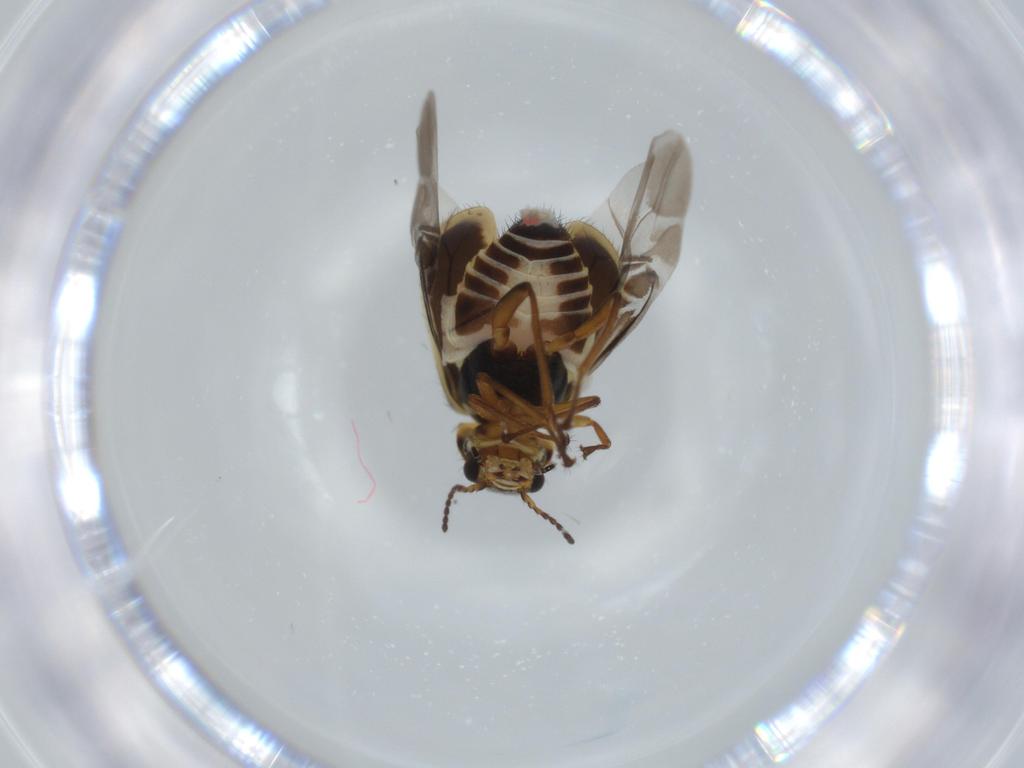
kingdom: Animalia
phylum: Arthropoda
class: Insecta
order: Coleoptera
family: Melyridae
